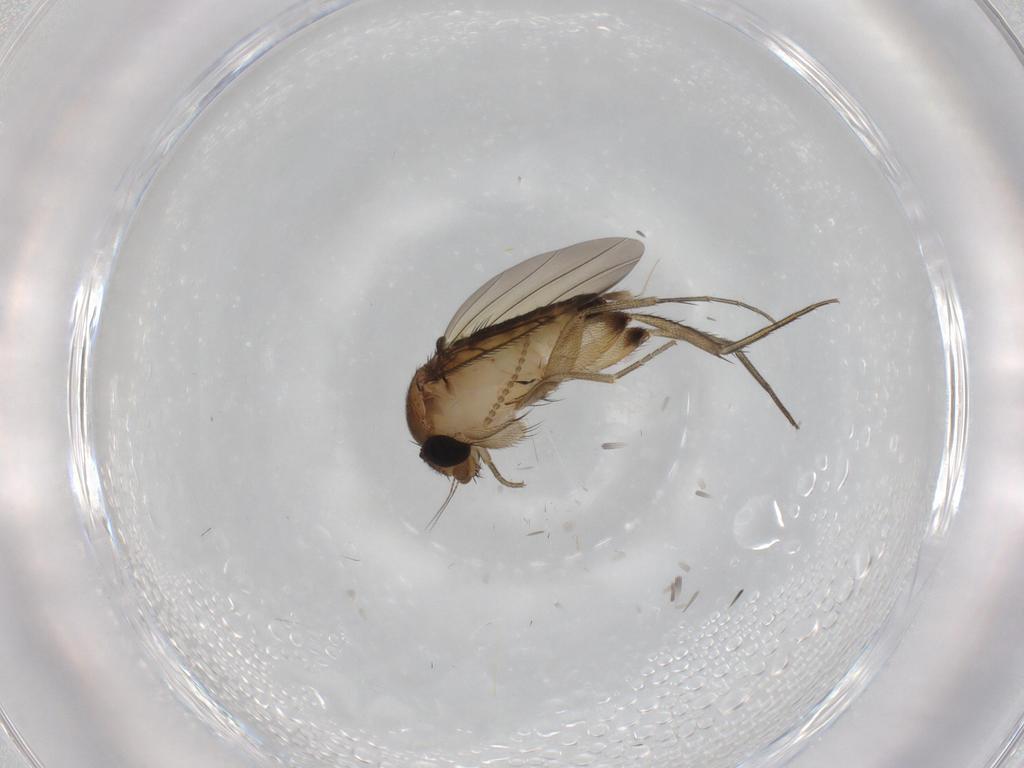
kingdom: Animalia
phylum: Arthropoda
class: Insecta
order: Diptera
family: Phoridae
